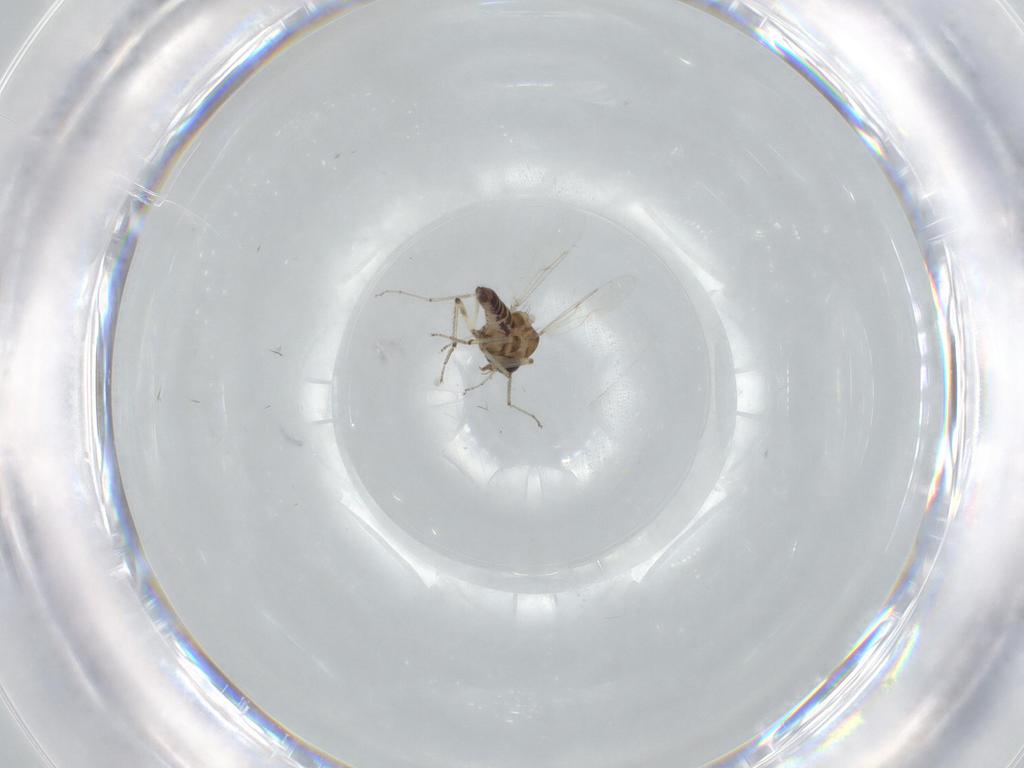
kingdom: Animalia
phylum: Arthropoda
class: Insecta
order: Diptera
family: Ceratopogonidae
